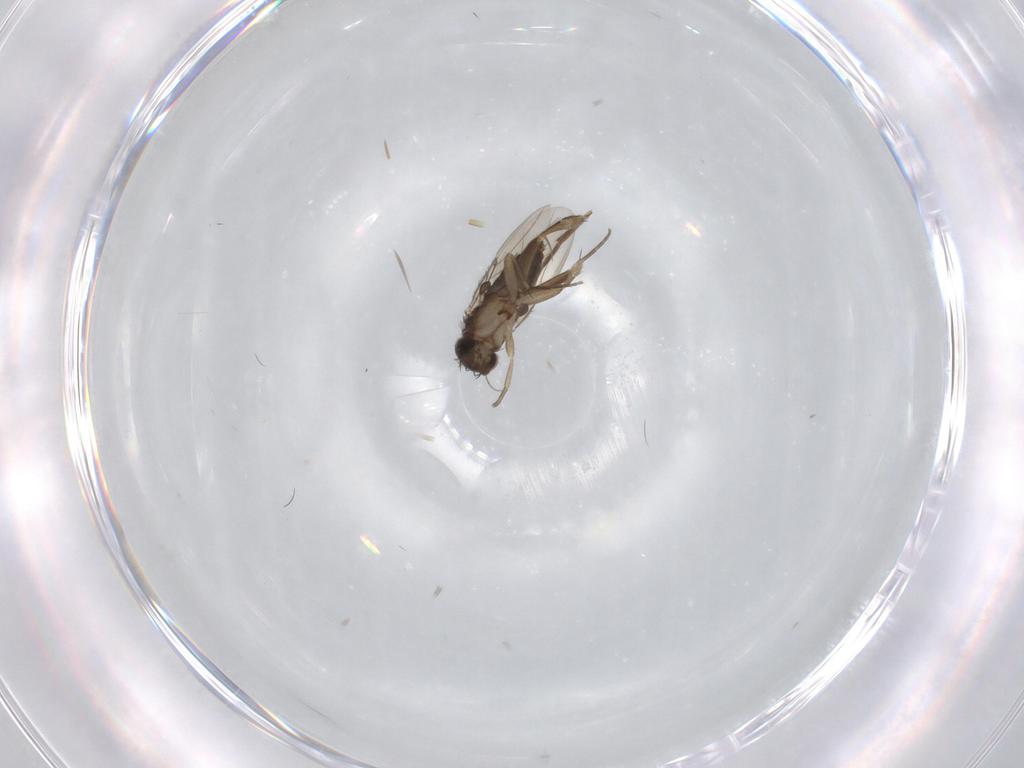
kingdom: Animalia
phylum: Arthropoda
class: Insecta
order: Diptera
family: Phoridae
